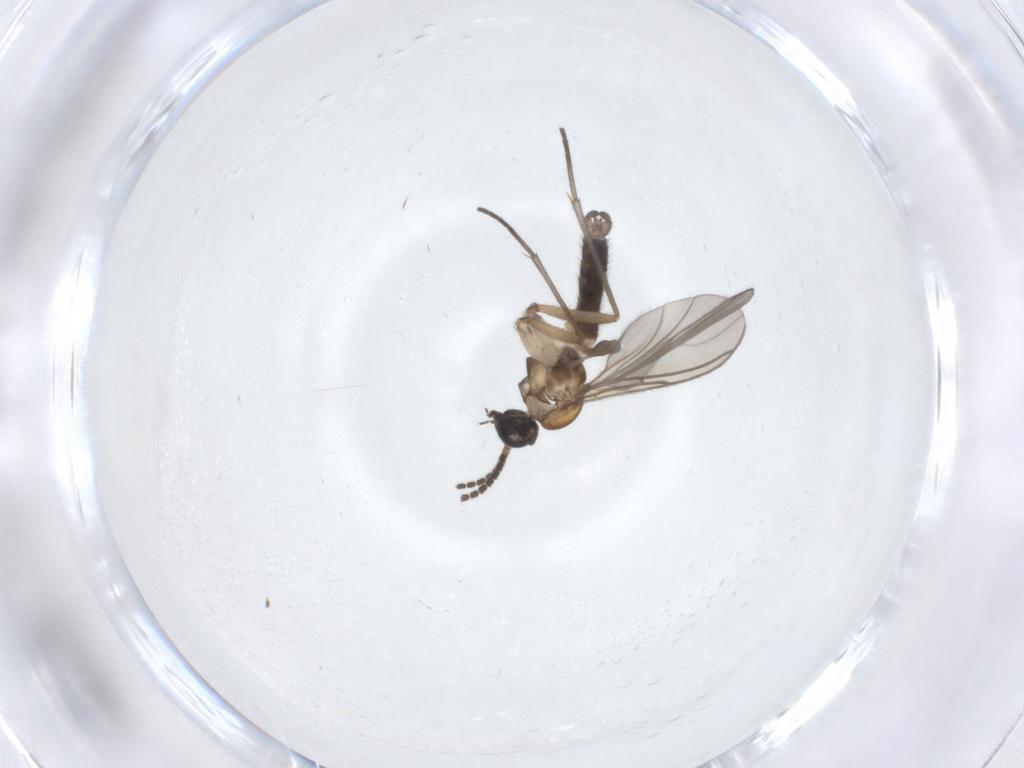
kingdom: Animalia
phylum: Arthropoda
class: Insecta
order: Diptera
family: Sciaridae
